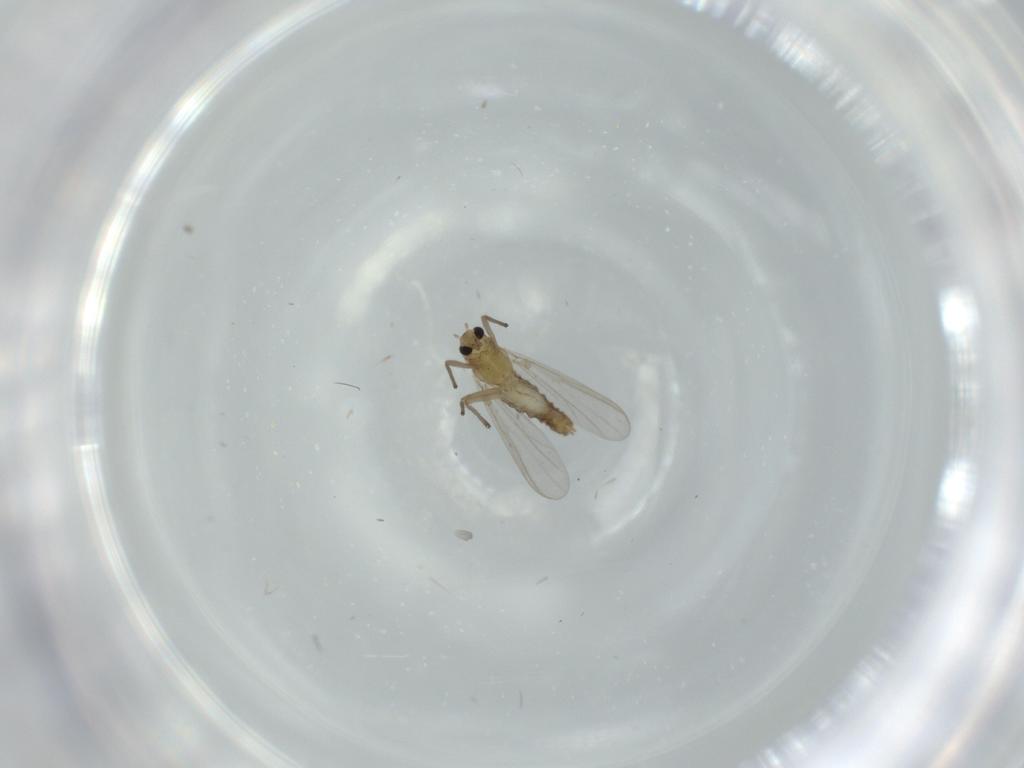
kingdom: Animalia
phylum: Arthropoda
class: Insecta
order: Diptera
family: Chironomidae
